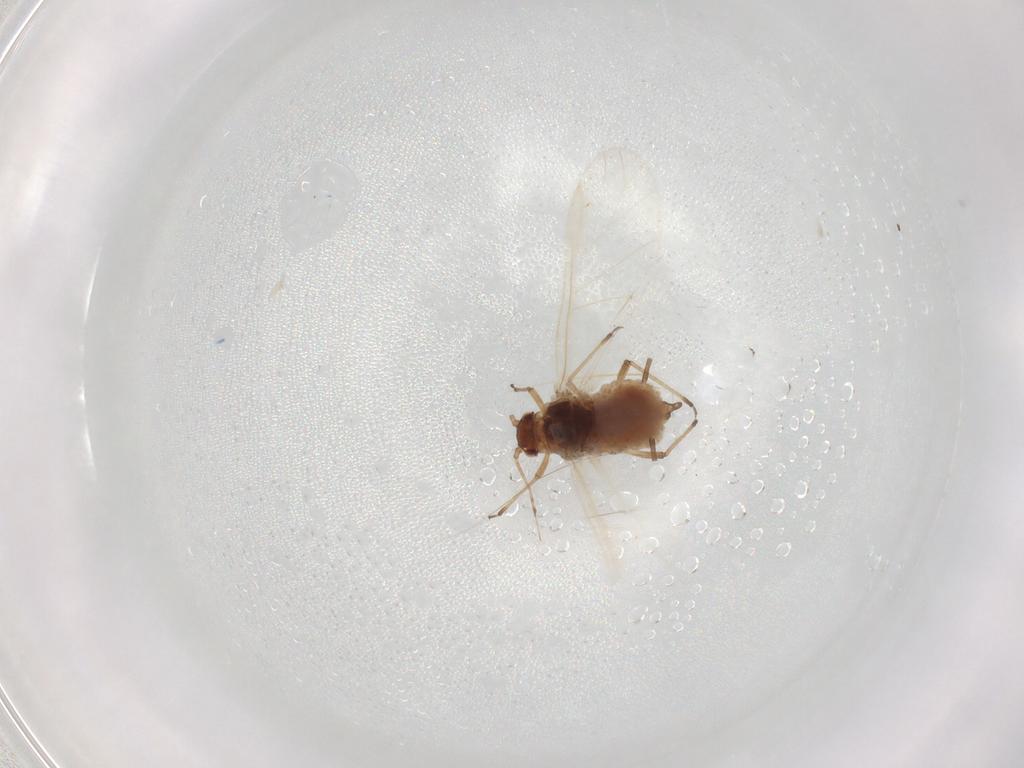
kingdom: Animalia
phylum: Arthropoda
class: Insecta
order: Hemiptera
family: Aphididae
